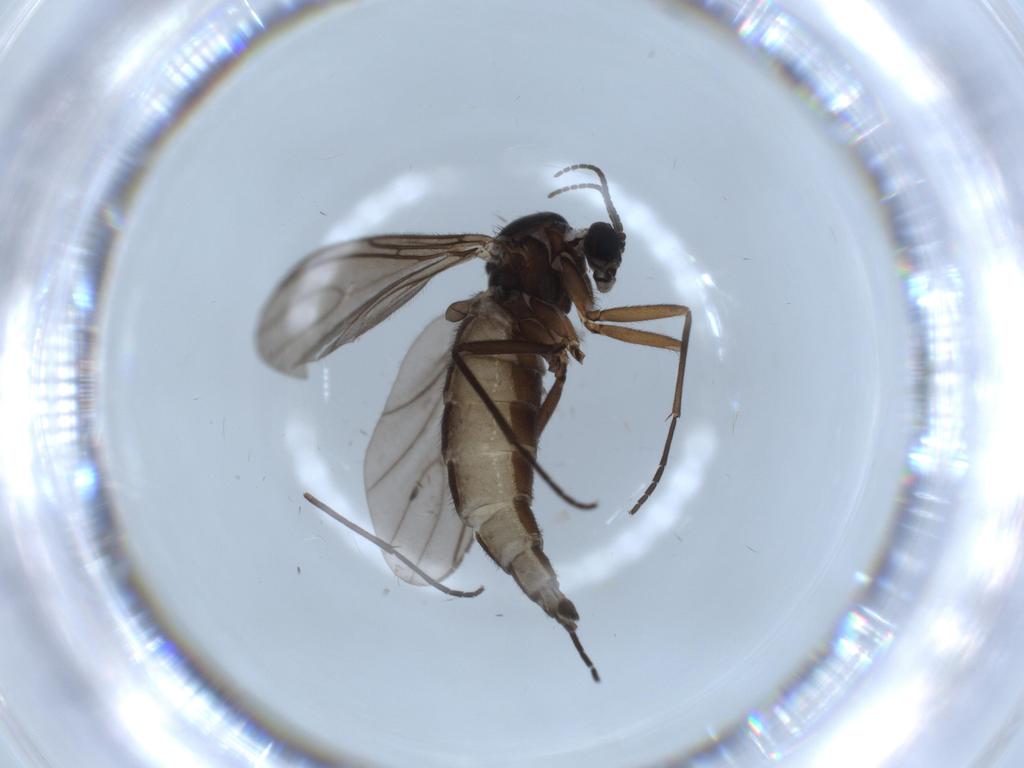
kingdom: Animalia
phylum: Arthropoda
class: Insecta
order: Diptera
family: Sciaridae
